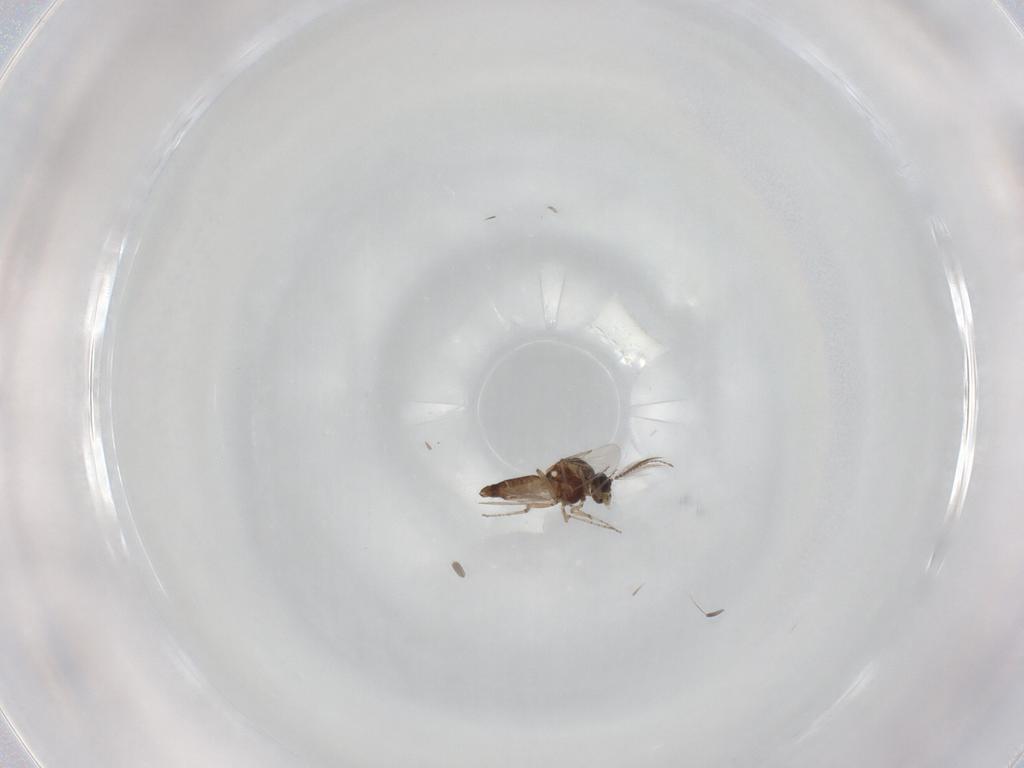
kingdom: Animalia
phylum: Arthropoda
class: Insecta
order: Diptera
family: Ceratopogonidae
